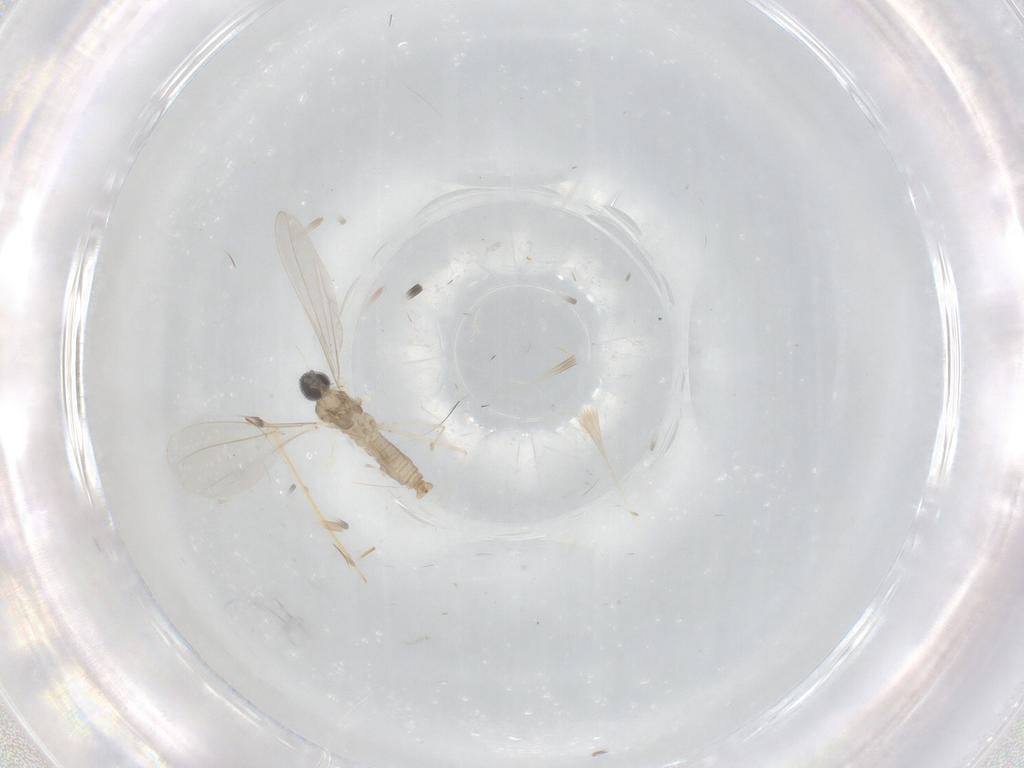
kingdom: Animalia
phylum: Arthropoda
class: Insecta
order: Diptera
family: Cecidomyiidae
